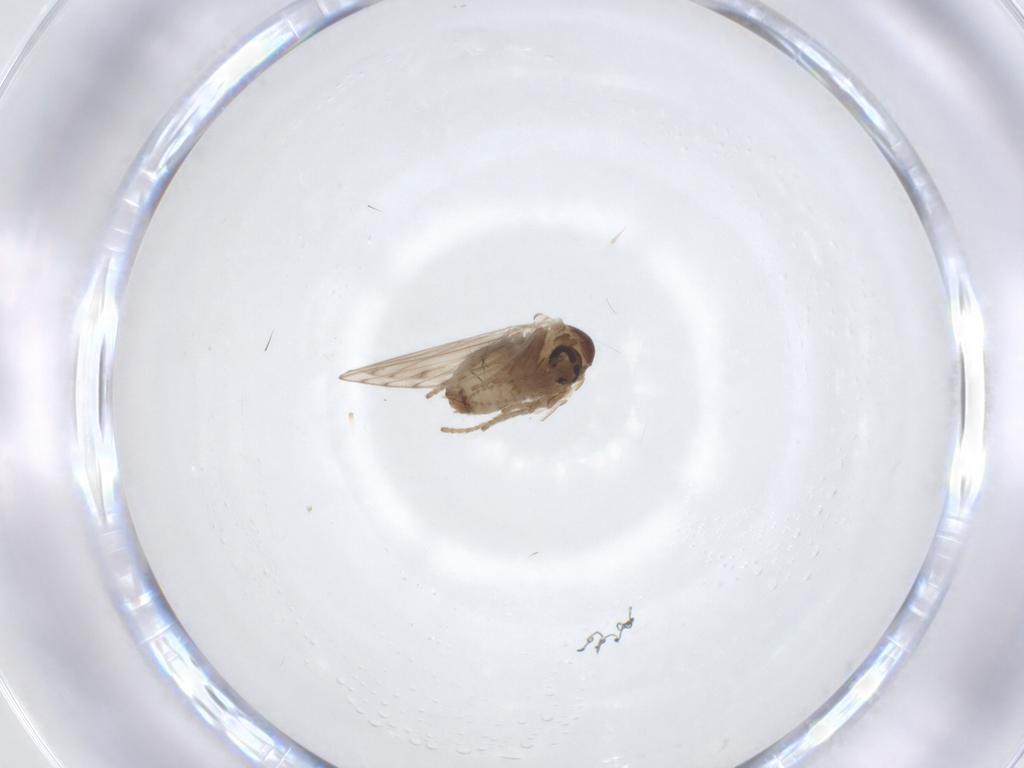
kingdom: Animalia
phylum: Arthropoda
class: Insecta
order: Diptera
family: Psychodidae
